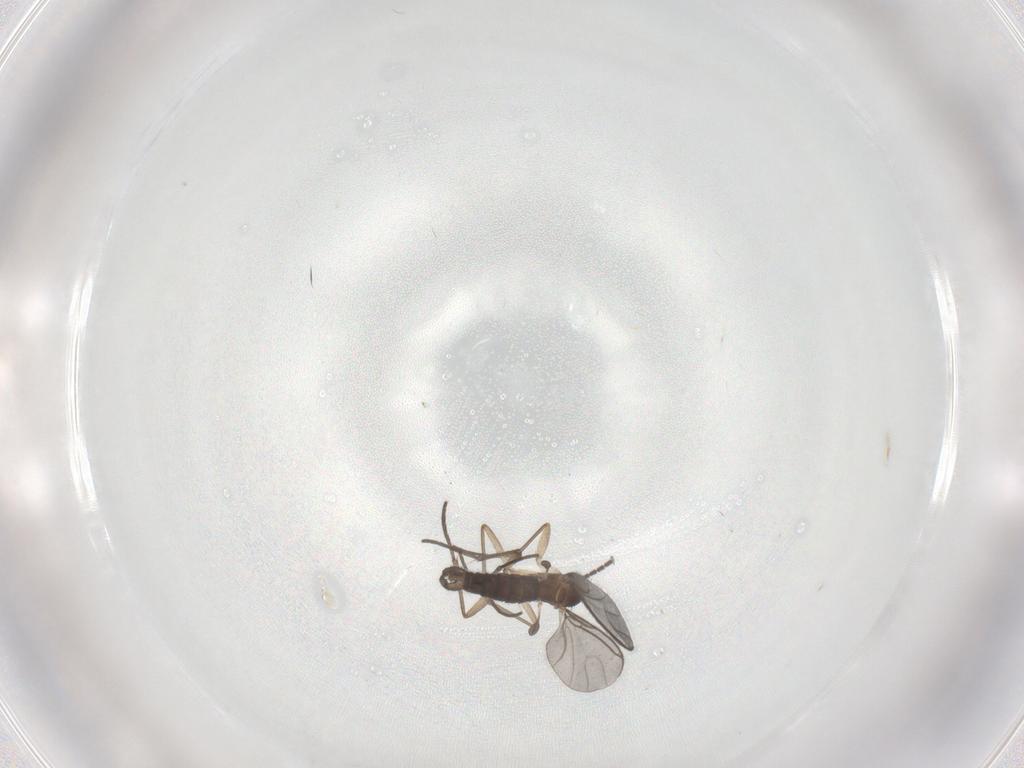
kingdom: Animalia
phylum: Arthropoda
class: Insecta
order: Diptera
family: Sciaridae
